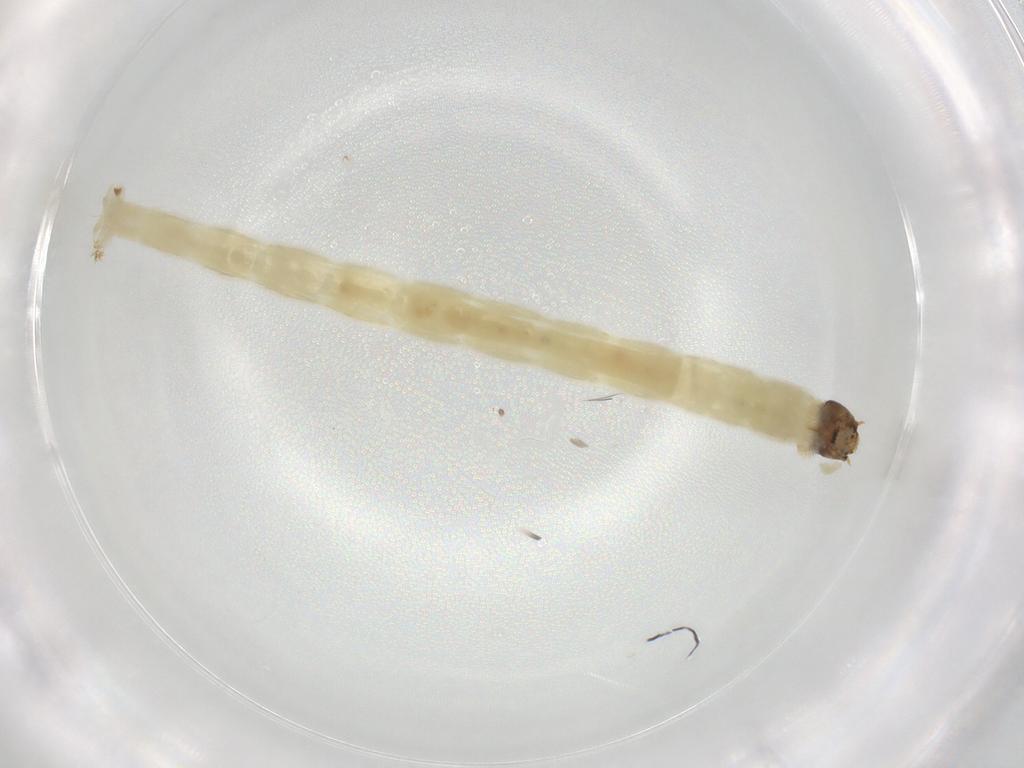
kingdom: Animalia
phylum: Arthropoda
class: Insecta
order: Diptera
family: Chironomidae
